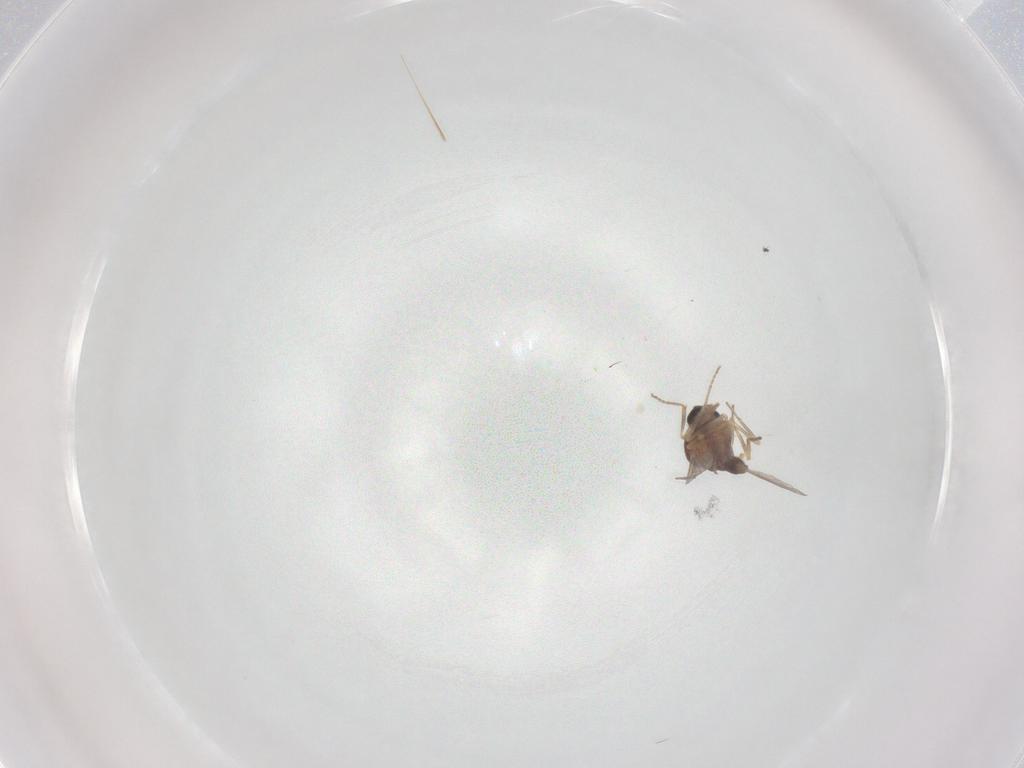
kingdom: Animalia
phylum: Arthropoda
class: Insecta
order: Diptera
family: Ceratopogonidae
